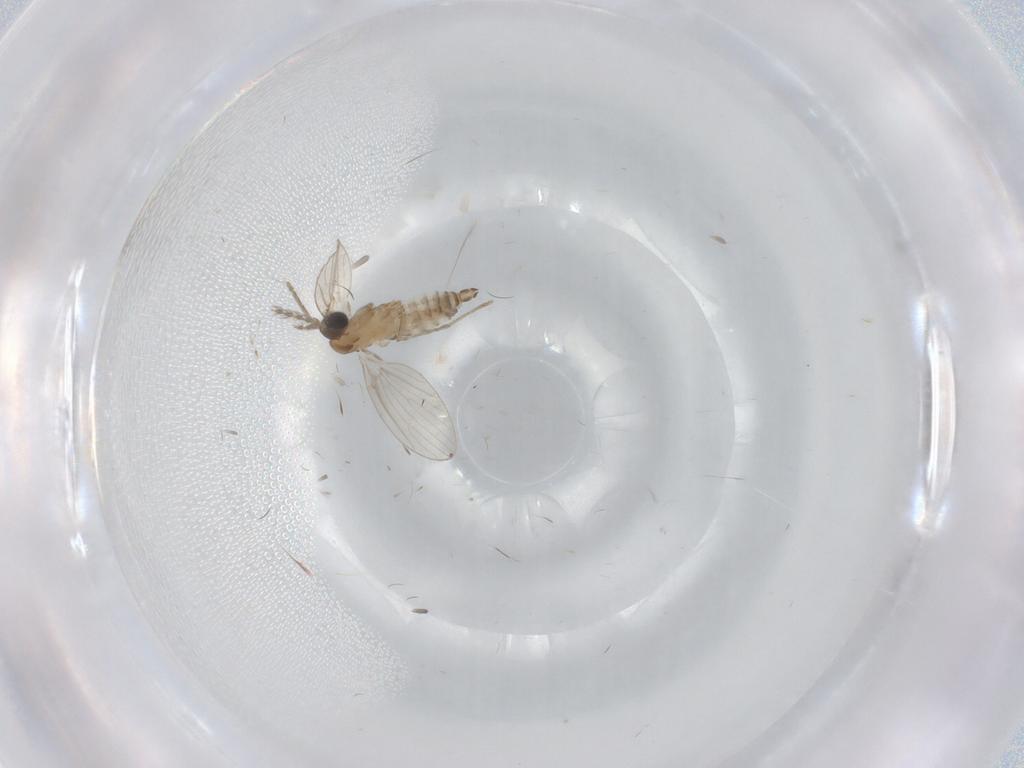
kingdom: Animalia
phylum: Arthropoda
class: Insecta
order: Diptera
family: Psychodidae
